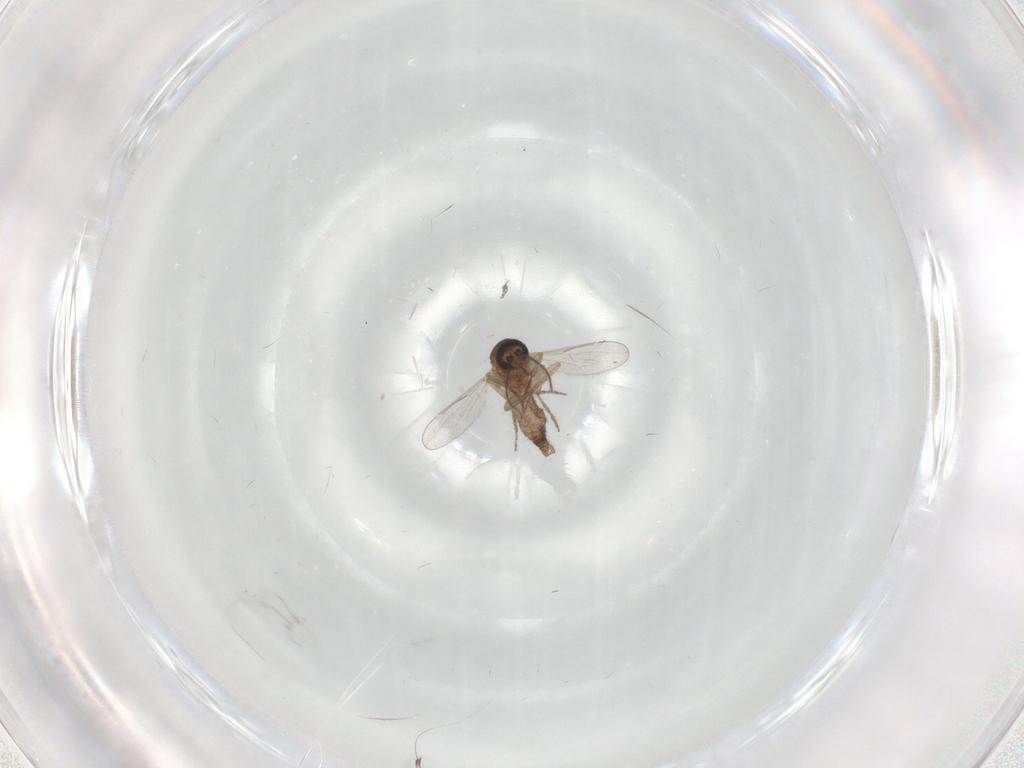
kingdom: Animalia
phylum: Arthropoda
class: Insecta
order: Diptera
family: Ceratopogonidae
